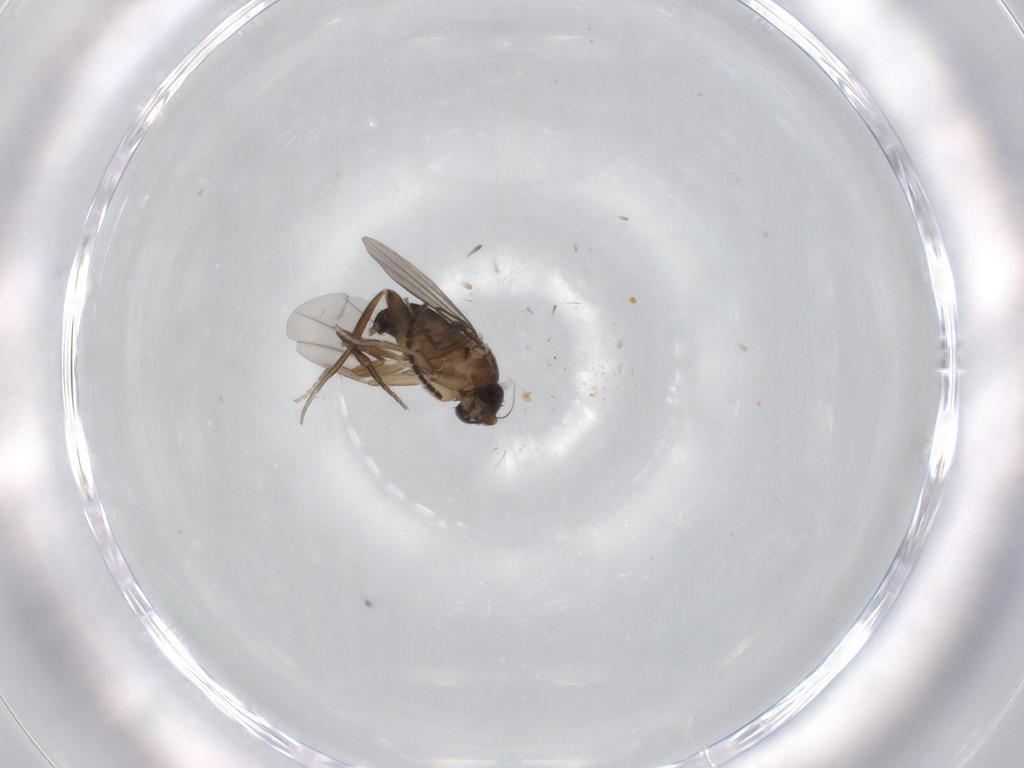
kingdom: Animalia
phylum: Arthropoda
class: Insecta
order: Diptera
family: Phoridae
